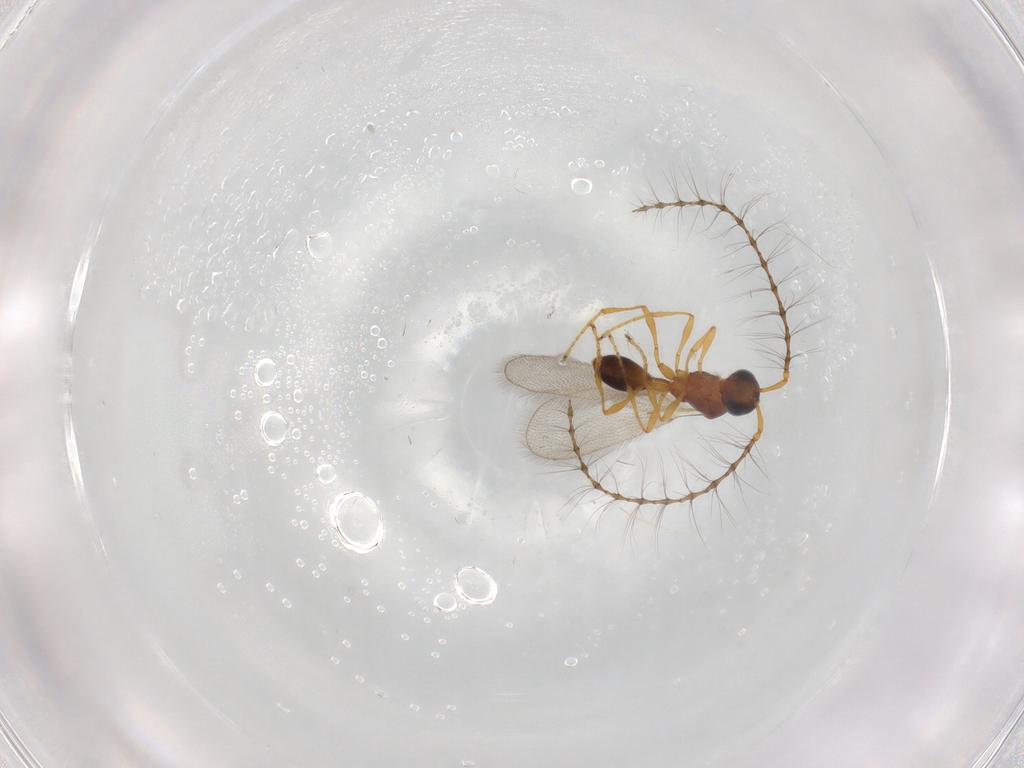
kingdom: Animalia
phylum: Arthropoda
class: Insecta
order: Hymenoptera
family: Diapriidae
